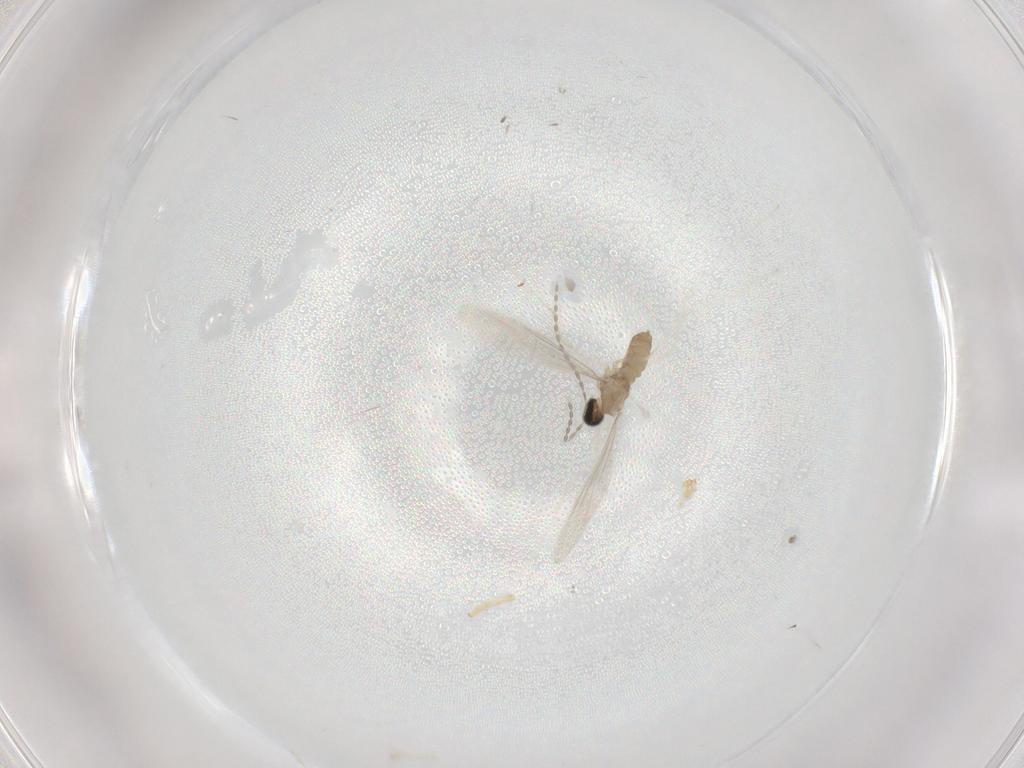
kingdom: Animalia
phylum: Arthropoda
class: Insecta
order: Diptera
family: Cecidomyiidae
